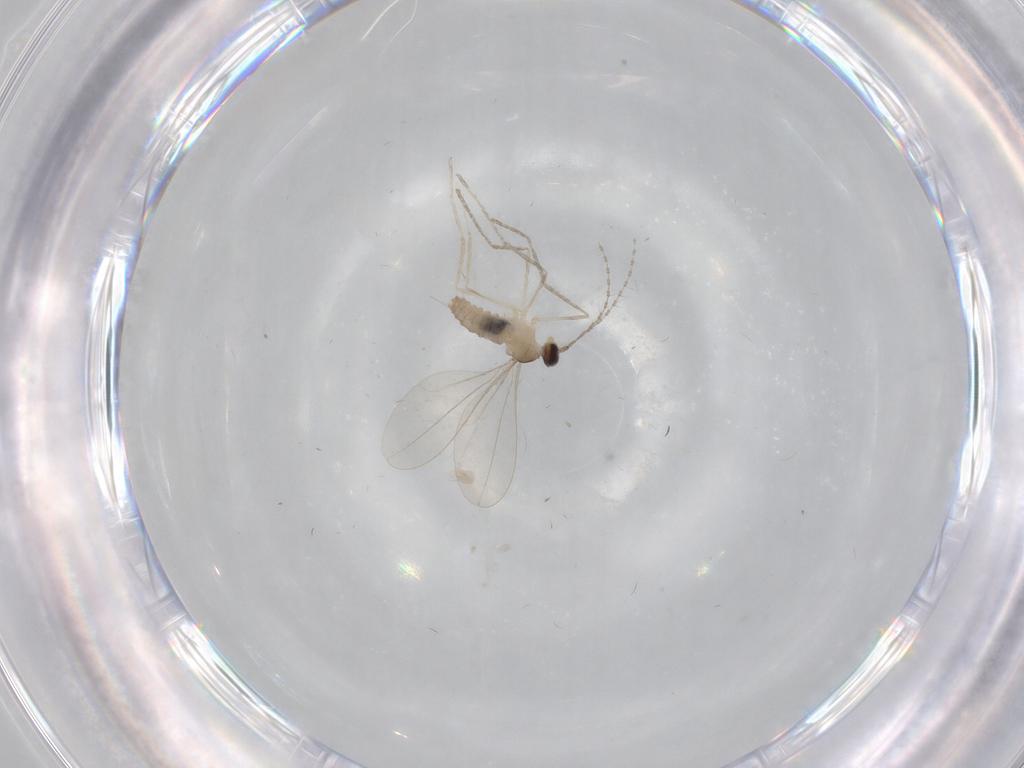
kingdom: Animalia
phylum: Arthropoda
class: Insecta
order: Diptera
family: Cecidomyiidae
